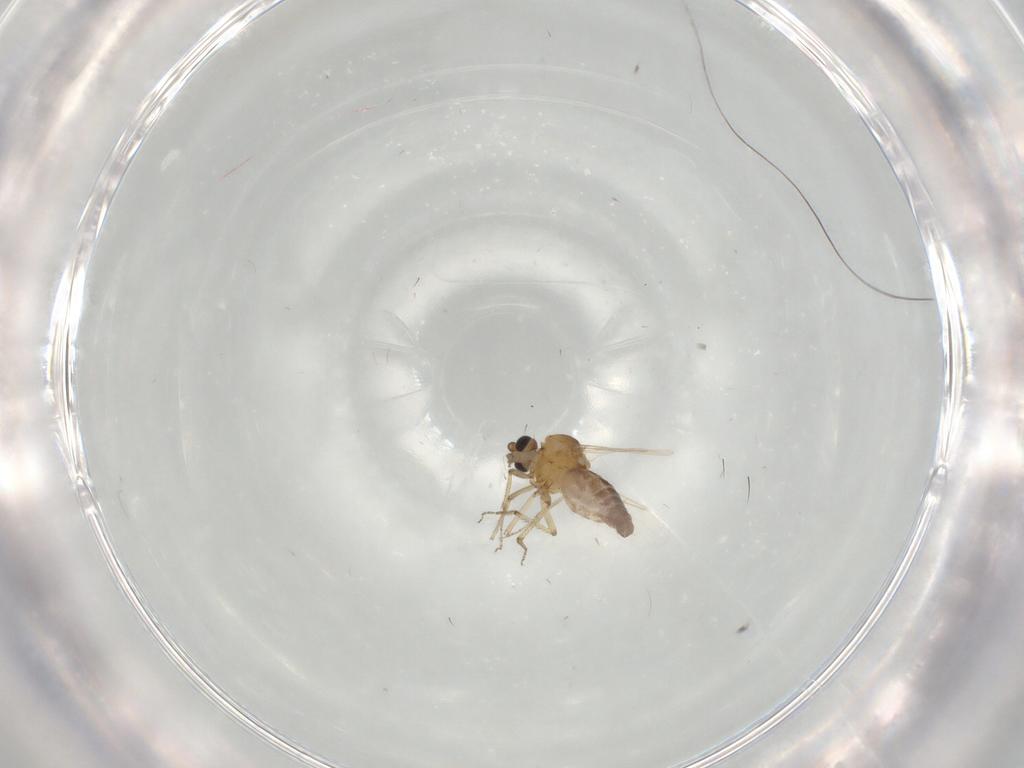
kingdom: Animalia
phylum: Arthropoda
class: Insecta
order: Diptera
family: Ceratopogonidae
